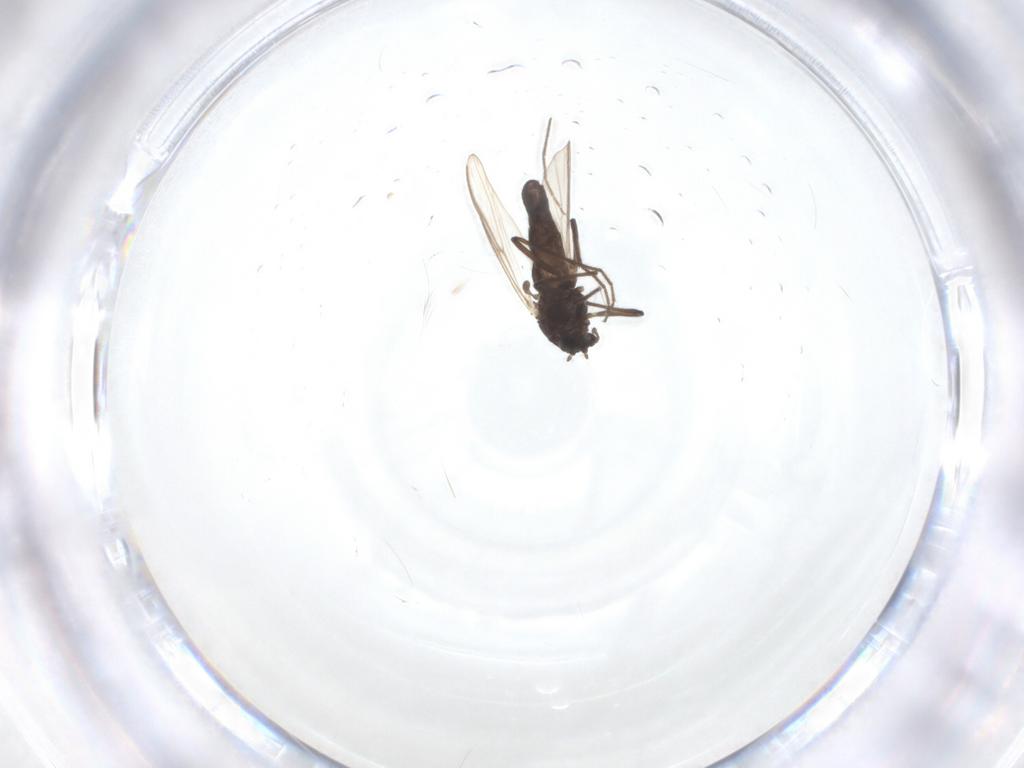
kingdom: Animalia
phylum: Arthropoda
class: Insecta
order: Diptera
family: Chironomidae
